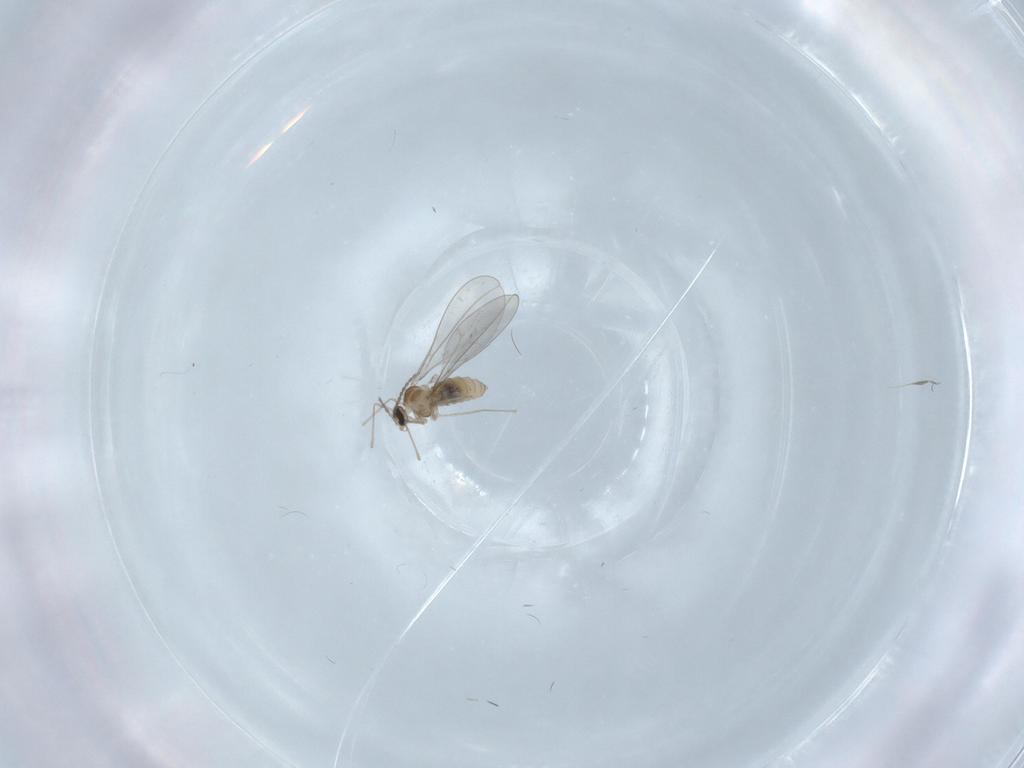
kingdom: Animalia
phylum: Arthropoda
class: Insecta
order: Diptera
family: Cecidomyiidae
